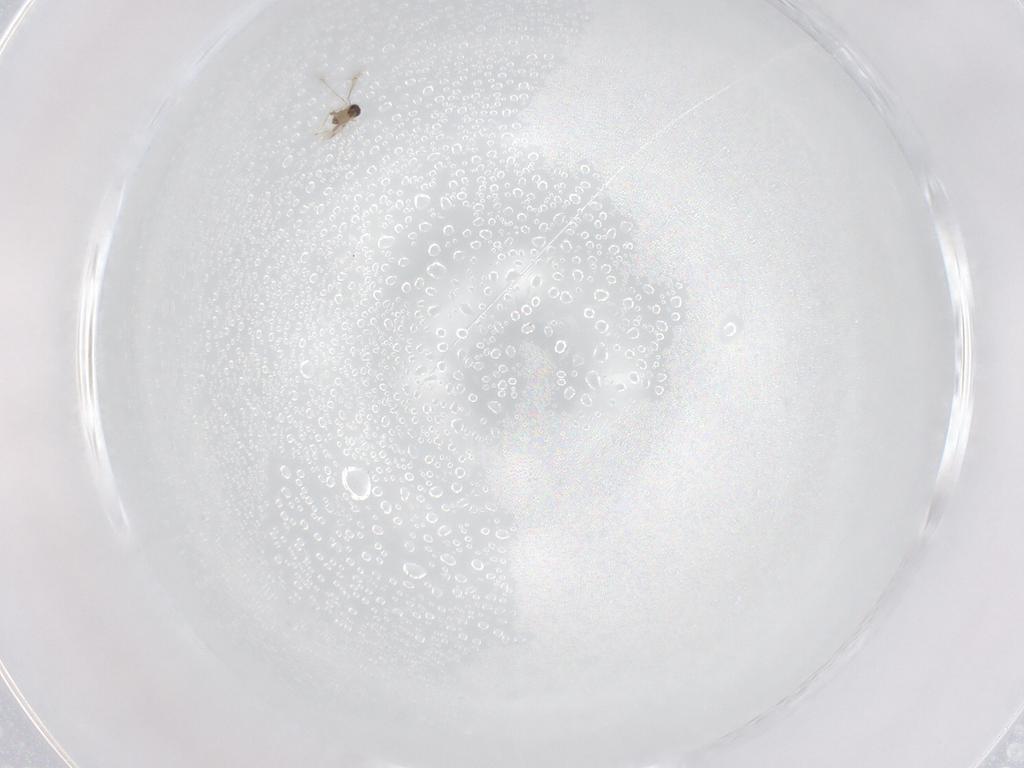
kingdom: Animalia
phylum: Arthropoda
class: Insecta
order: Hymenoptera
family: Mymaridae
